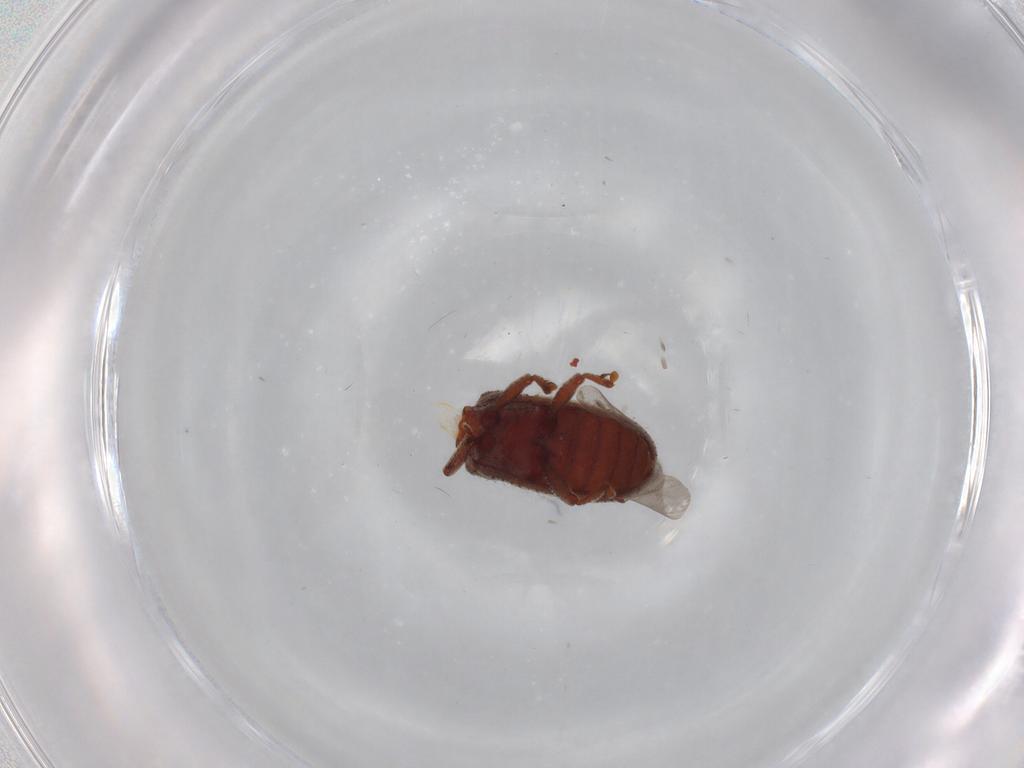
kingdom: Animalia
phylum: Arthropoda
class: Insecta
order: Coleoptera
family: Zopheridae
